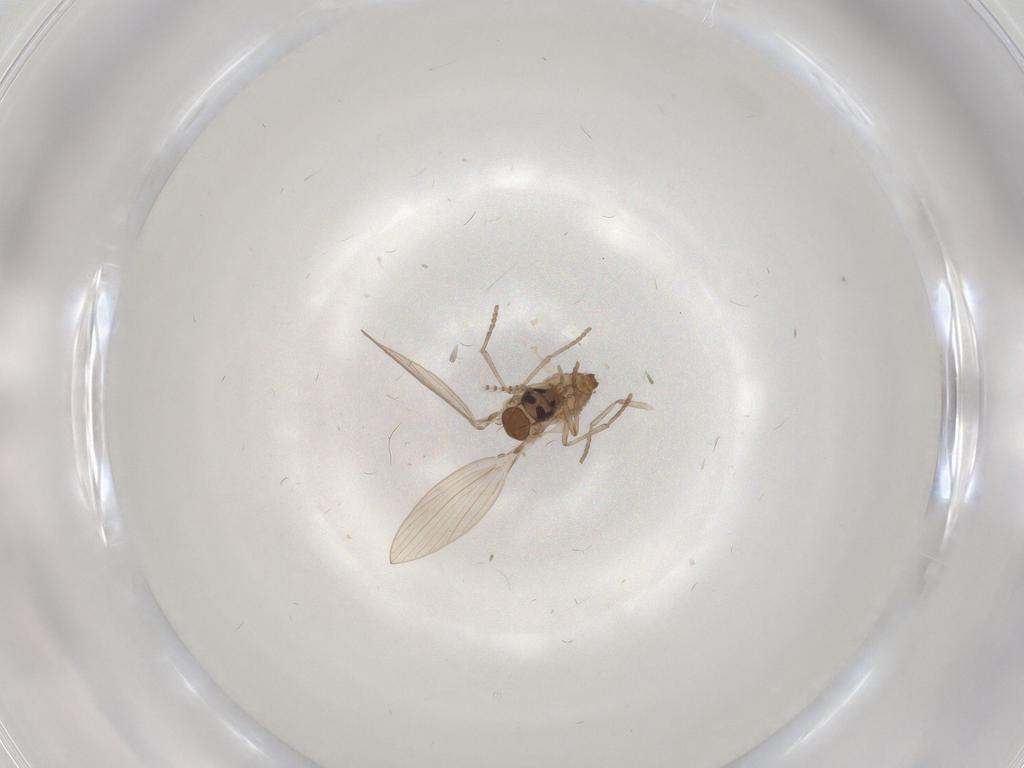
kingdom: Animalia
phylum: Arthropoda
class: Insecta
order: Diptera
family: Psychodidae
